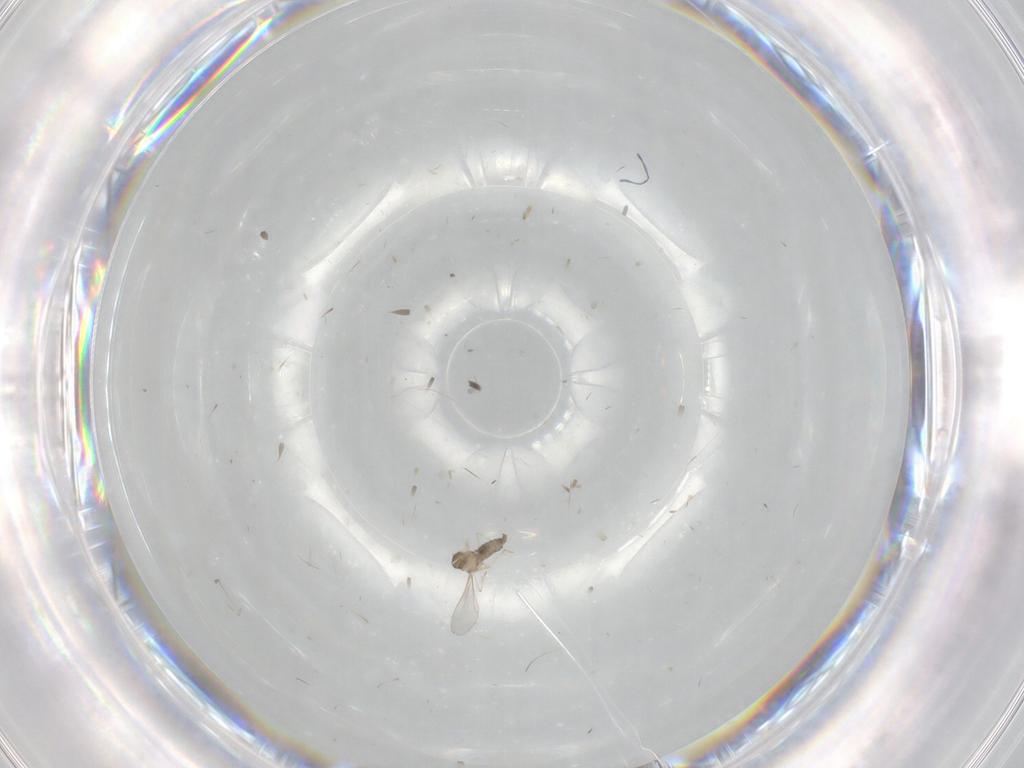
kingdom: Animalia
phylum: Arthropoda
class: Insecta
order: Diptera
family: Cecidomyiidae
